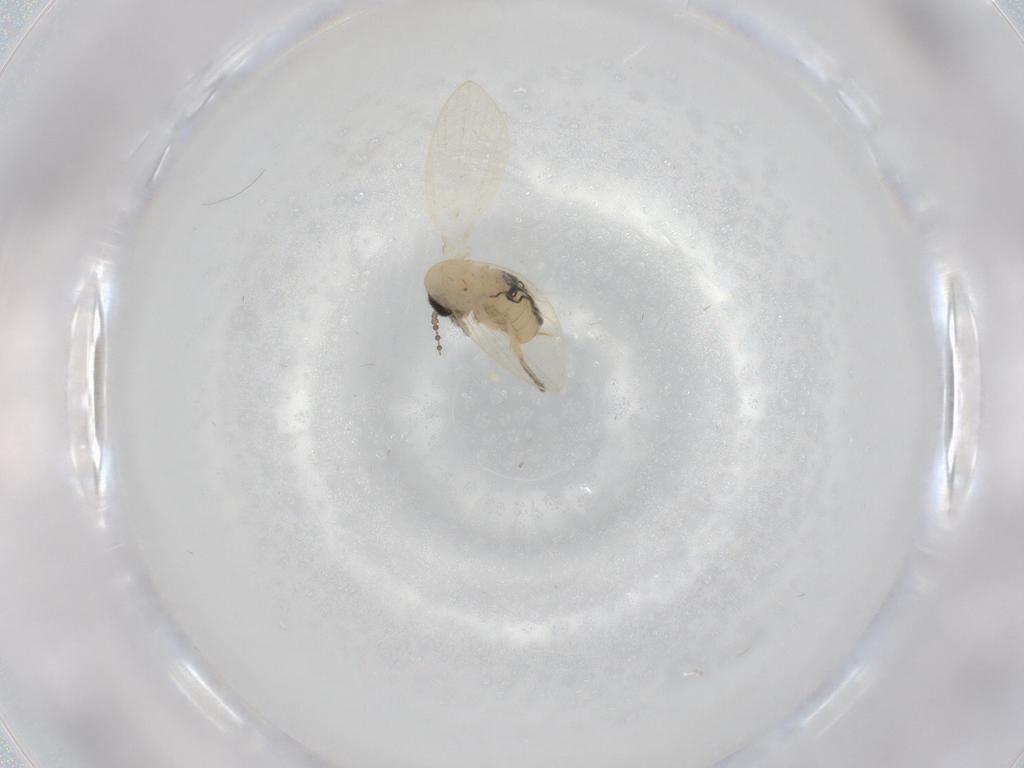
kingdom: Animalia
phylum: Arthropoda
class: Insecta
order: Diptera
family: Psychodidae
